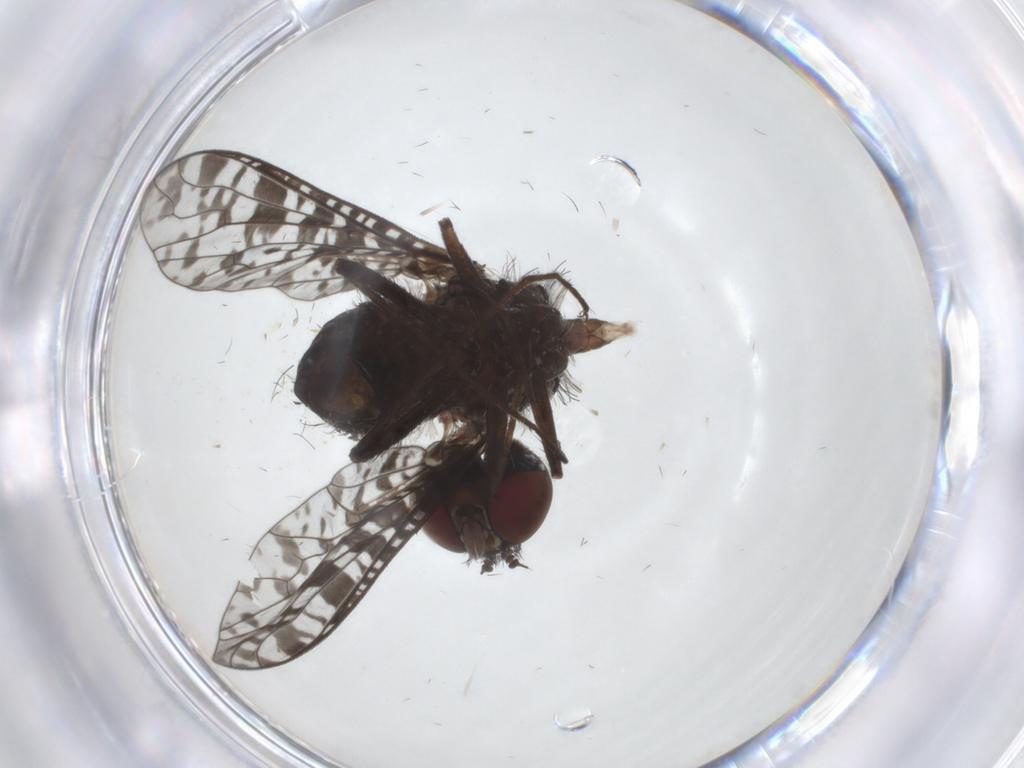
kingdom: Animalia
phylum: Arthropoda
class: Insecta
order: Diptera
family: Bombyliidae
